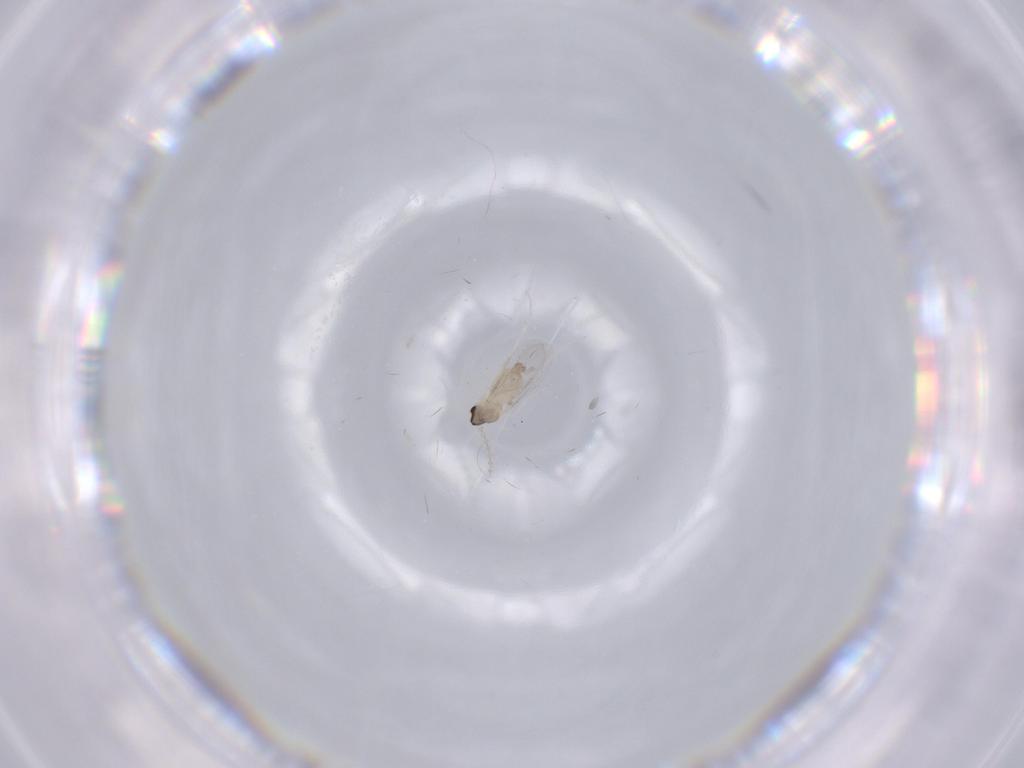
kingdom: Animalia
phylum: Arthropoda
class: Insecta
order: Diptera
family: Cecidomyiidae
